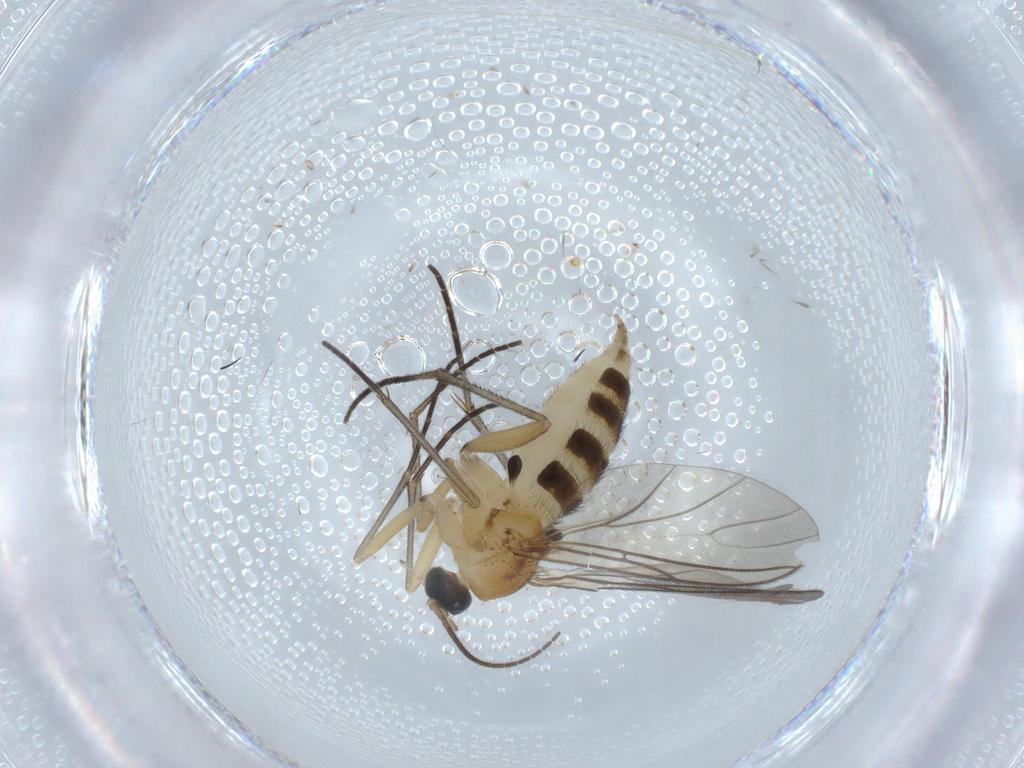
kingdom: Animalia
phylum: Arthropoda
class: Insecta
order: Diptera
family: Sciaridae
